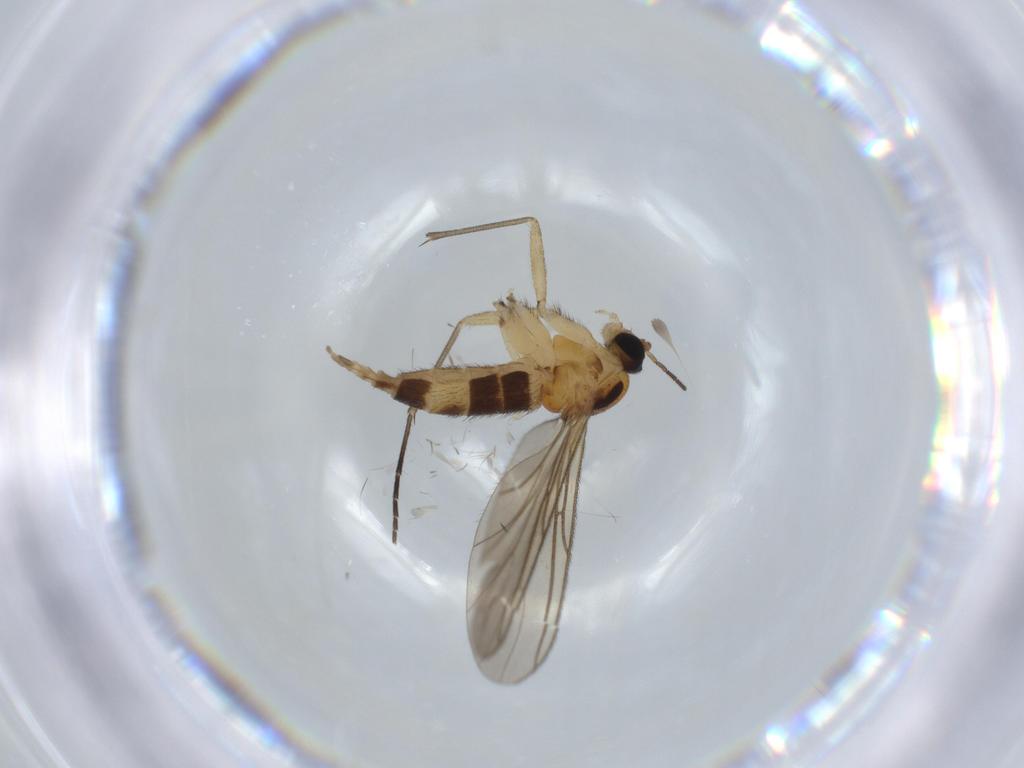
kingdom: Animalia
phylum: Arthropoda
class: Insecta
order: Diptera
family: Sciaridae
